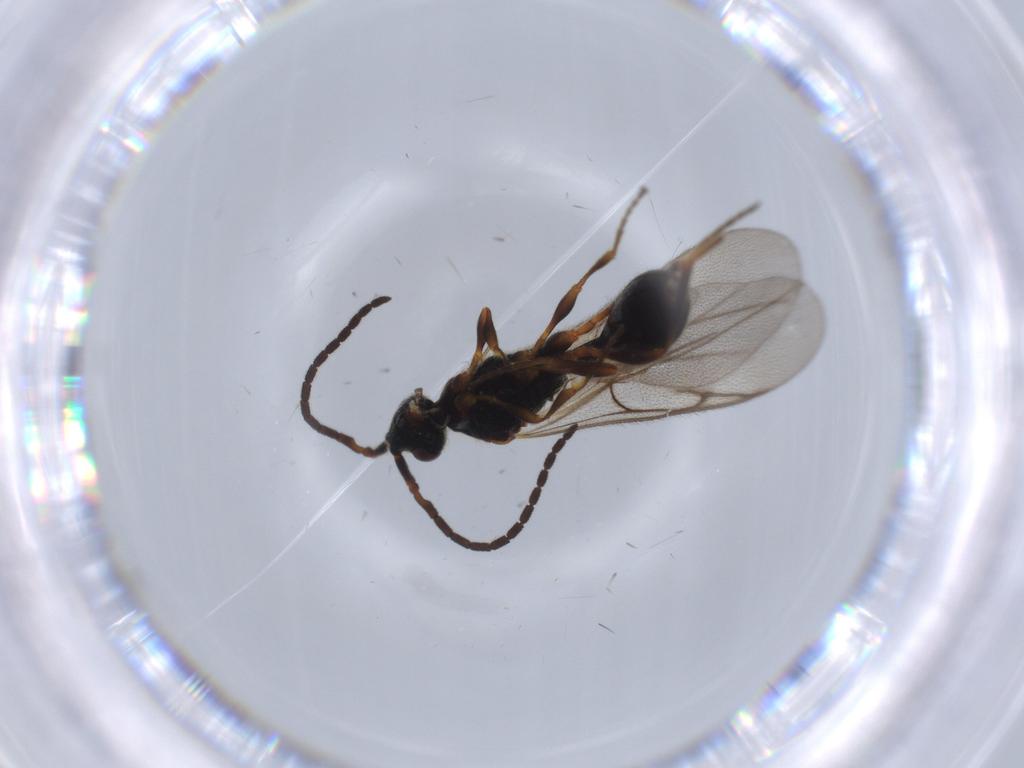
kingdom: Animalia
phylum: Arthropoda
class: Insecta
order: Hymenoptera
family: Diapriidae
